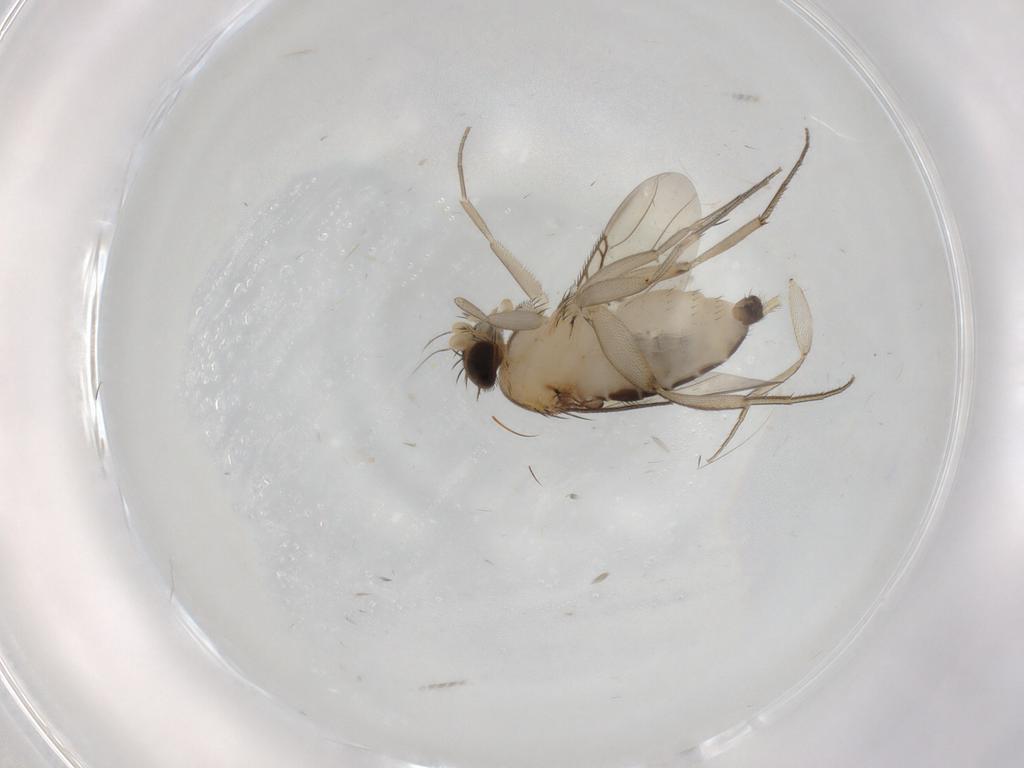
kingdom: Animalia
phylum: Arthropoda
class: Insecta
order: Diptera
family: Phoridae
